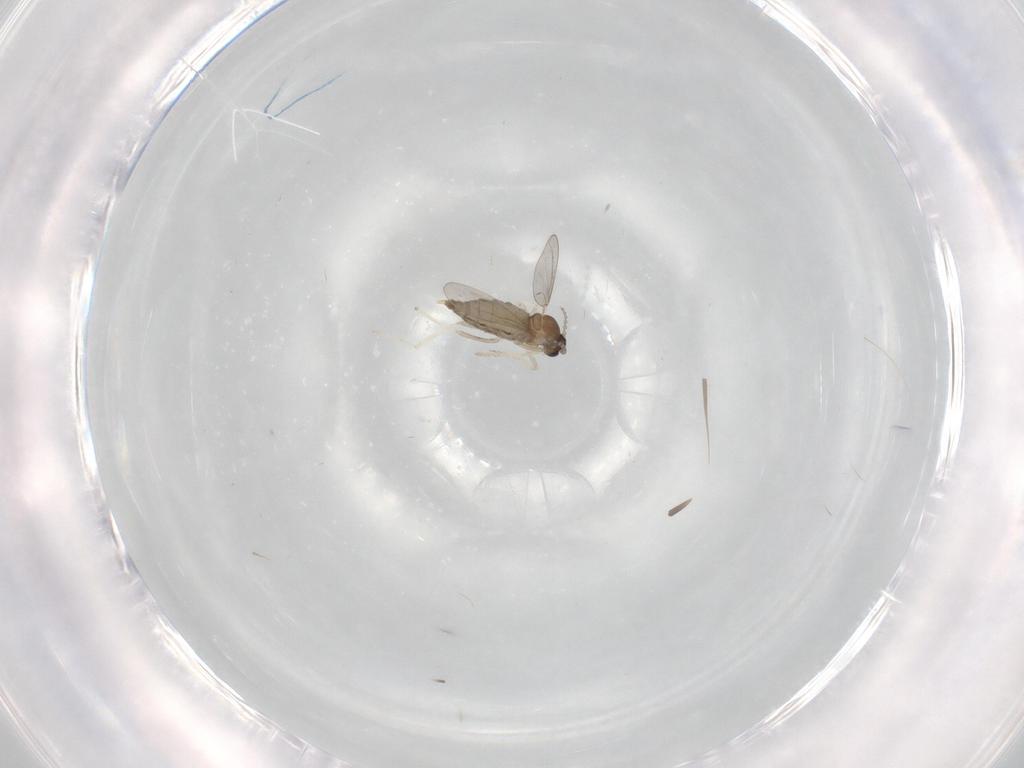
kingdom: Animalia
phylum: Arthropoda
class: Insecta
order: Diptera
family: Cecidomyiidae
